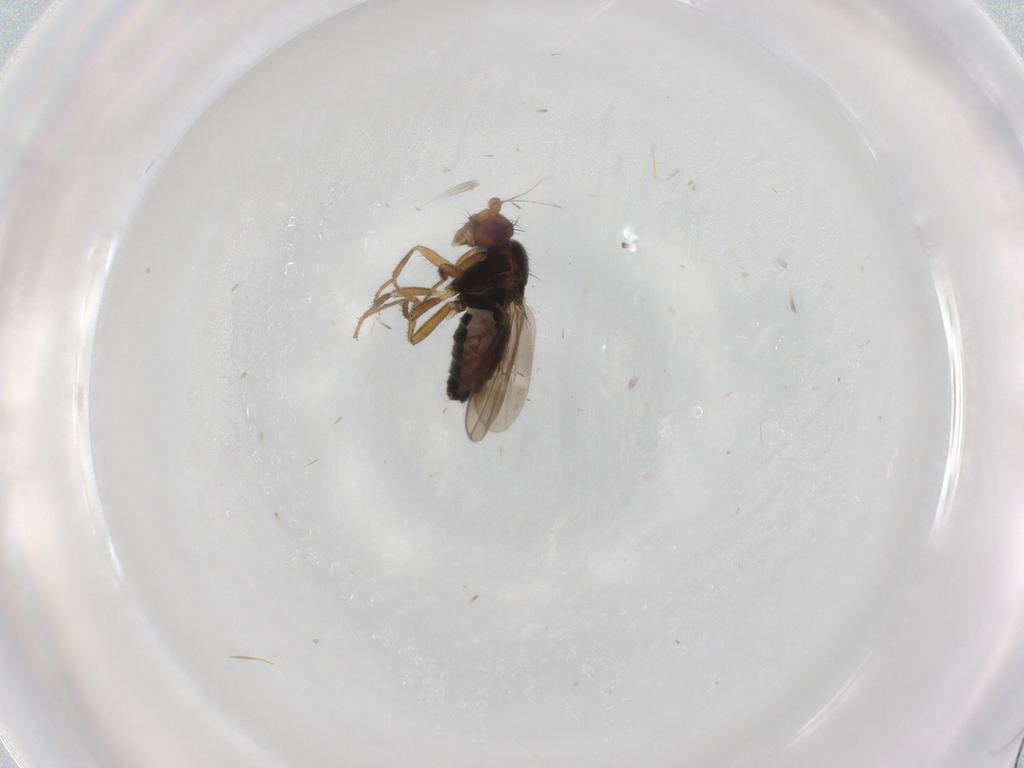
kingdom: Animalia
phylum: Arthropoda
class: Insecta
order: Diptera
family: Sphaeroceridae
